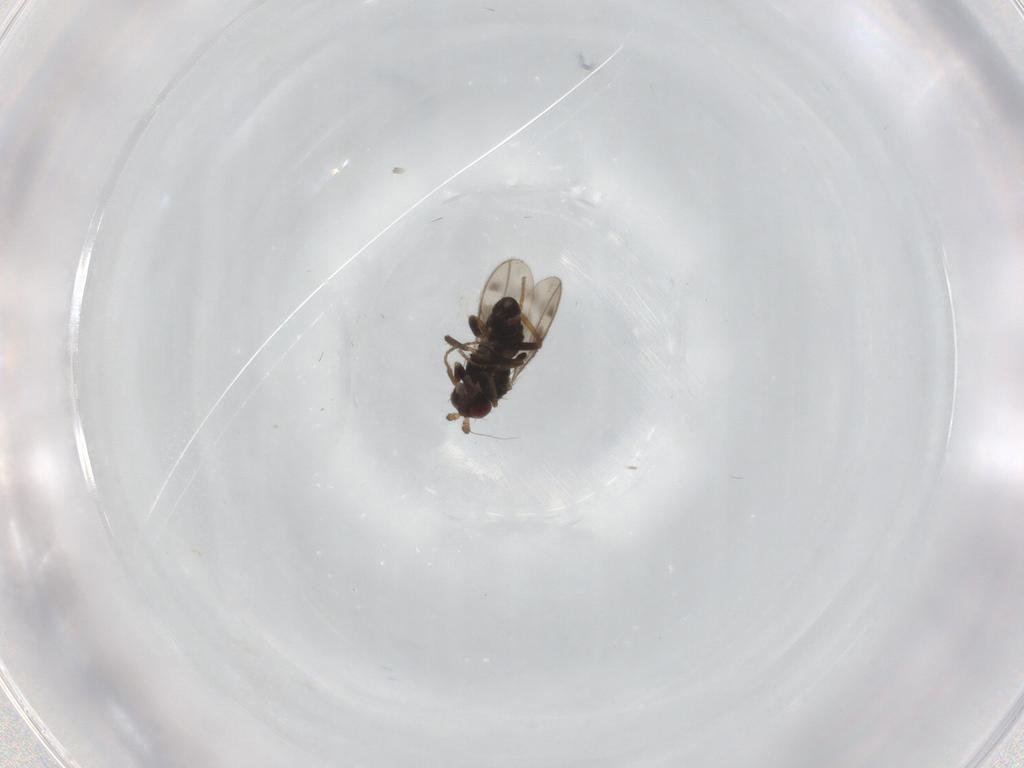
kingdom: Animalia
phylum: Arthropoda
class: Insecta
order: Diptera
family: Sphaeroceridae
